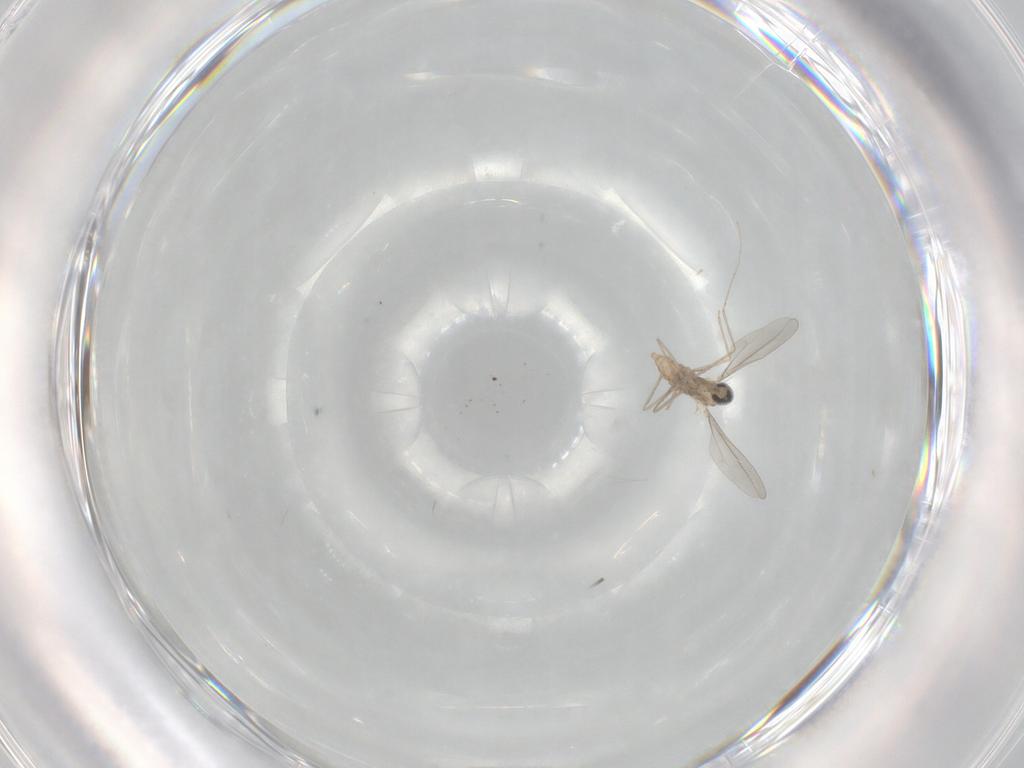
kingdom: Animalia
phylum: Arthropoda
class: Insecta
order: Diptera
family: Cecidomyiidae
